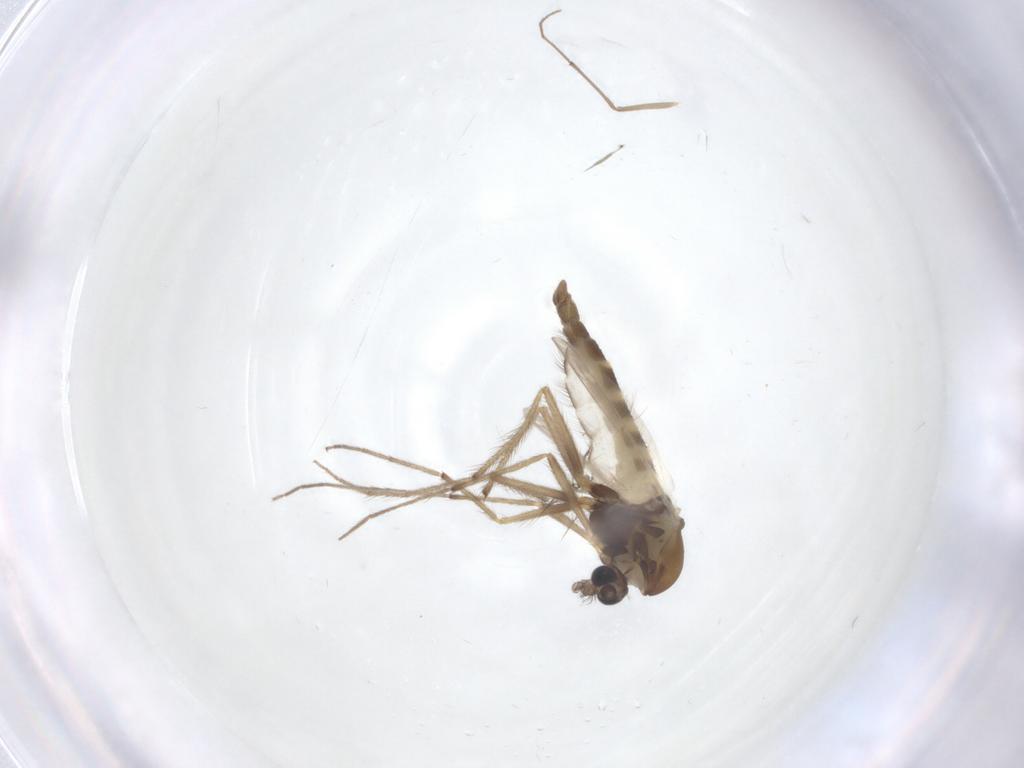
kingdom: Animalia
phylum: Arthropoda
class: Insecta
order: Diptera
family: Chironomidae
